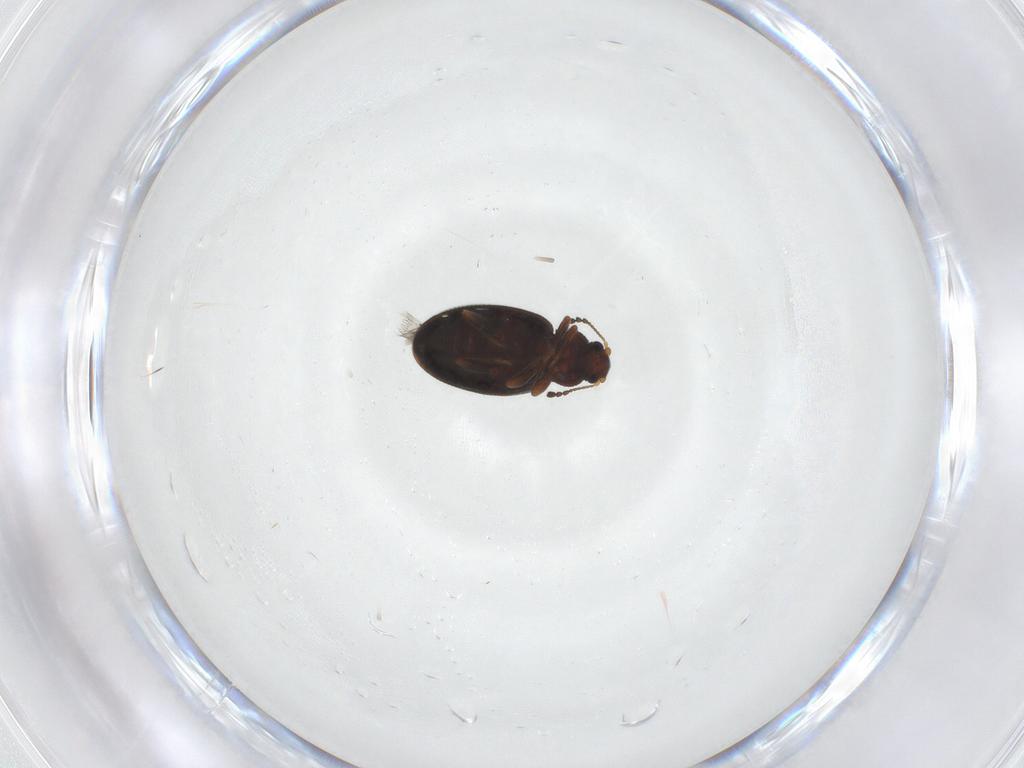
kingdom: Animalia
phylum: Arthropoda
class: Insecta
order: Coleoptera
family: Latridiidae
